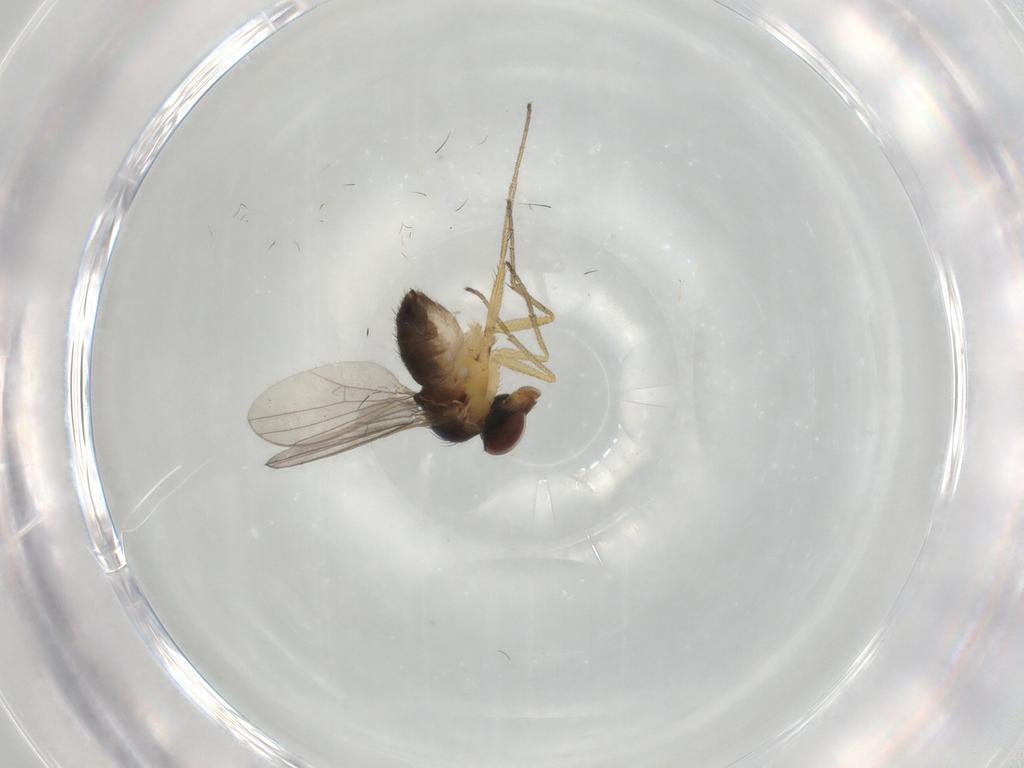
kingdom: Animalia
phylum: Arthropoda
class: Insecta
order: Diptera
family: Dolichopodidae
